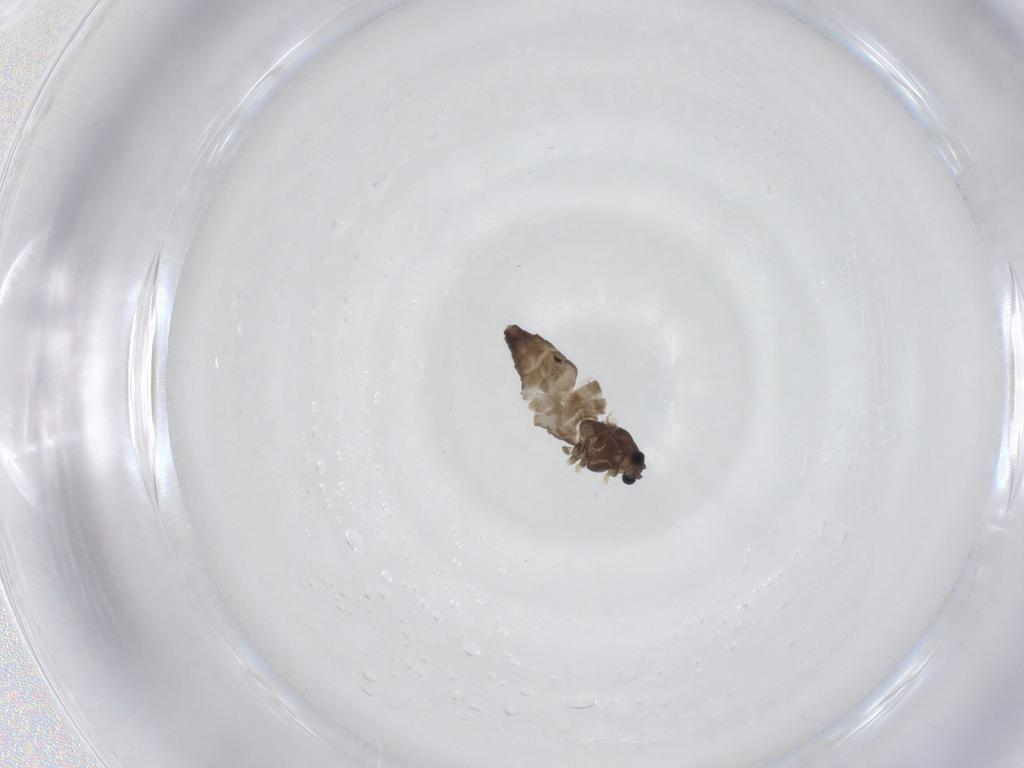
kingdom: Animalia
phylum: Arthropoda
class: Insecta
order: Diptera
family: Chironomidae
